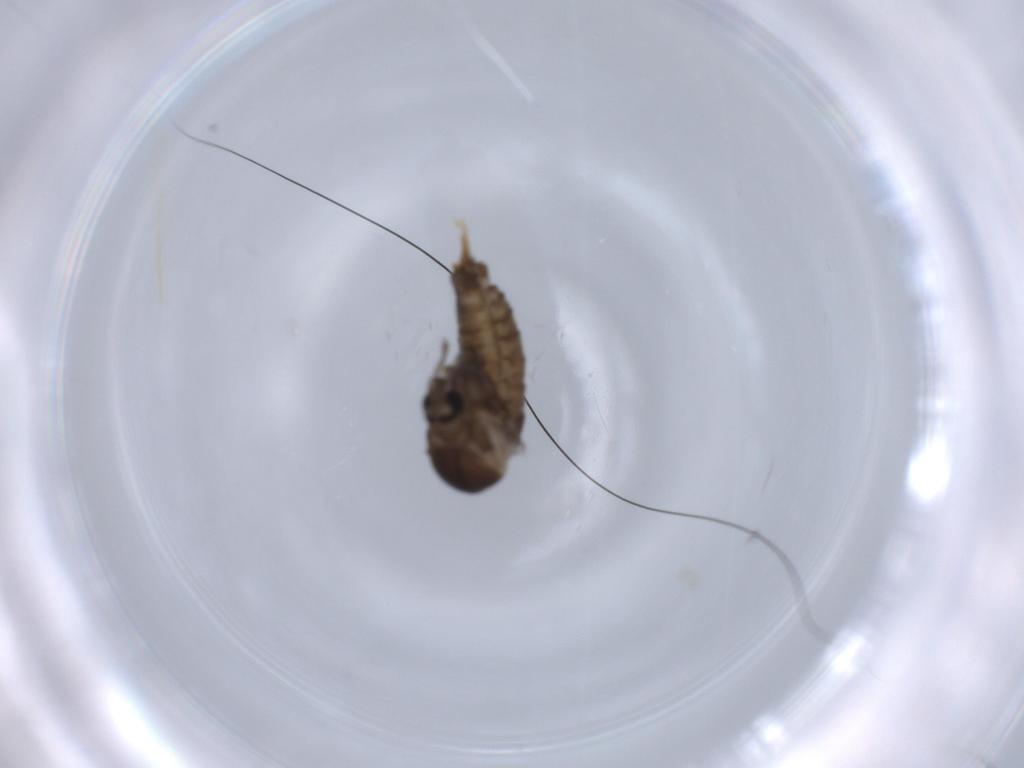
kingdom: Animalia
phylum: Arthropoda
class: Insecta
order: Diptera
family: Psychodidae
